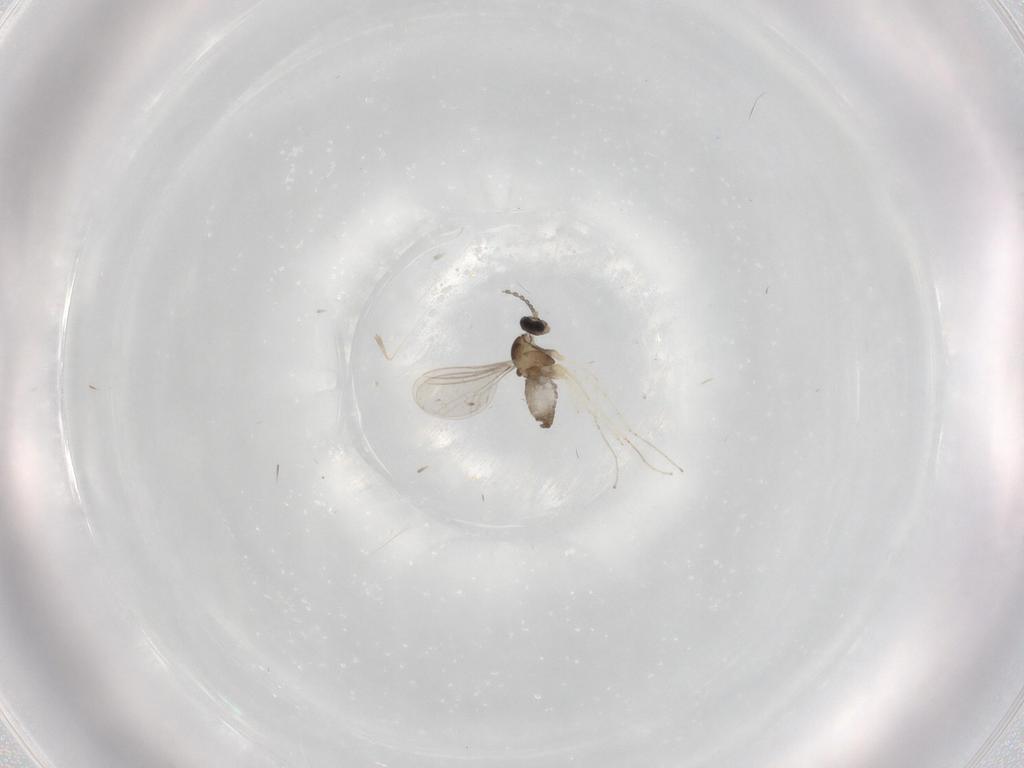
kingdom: Animalia
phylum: Arthropoda
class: Insecta
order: Diptera
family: Cecidomyiidae
